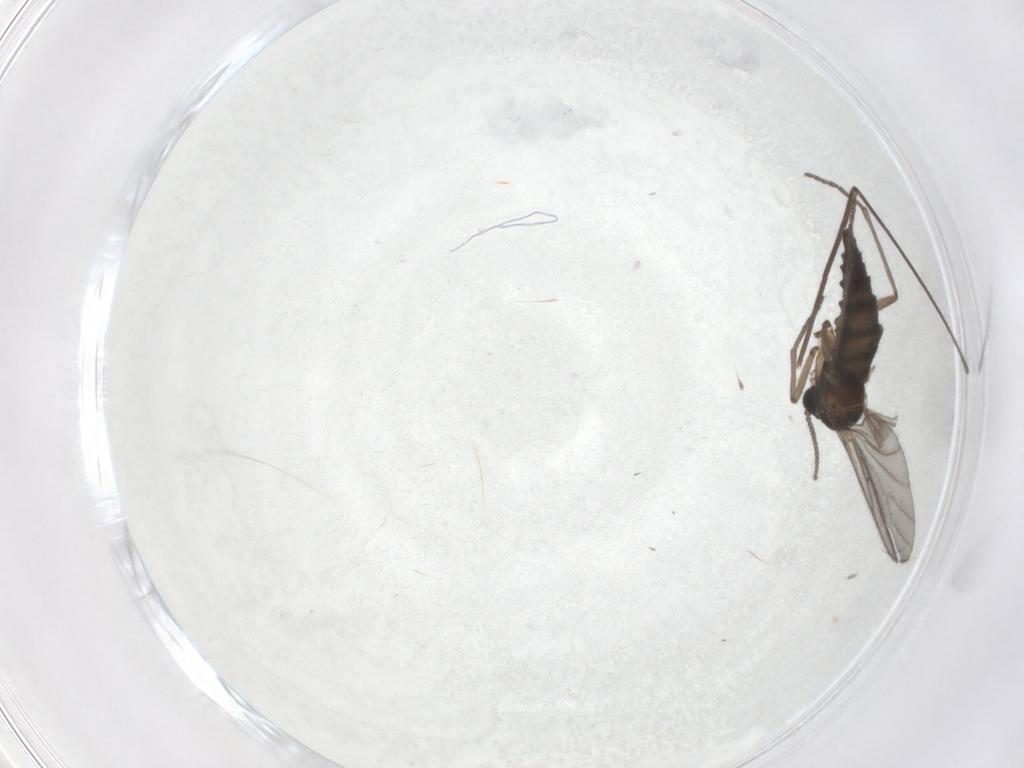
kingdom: Animalia
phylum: Arthropoda
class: Insecta
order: Diptera
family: Sciaridae
